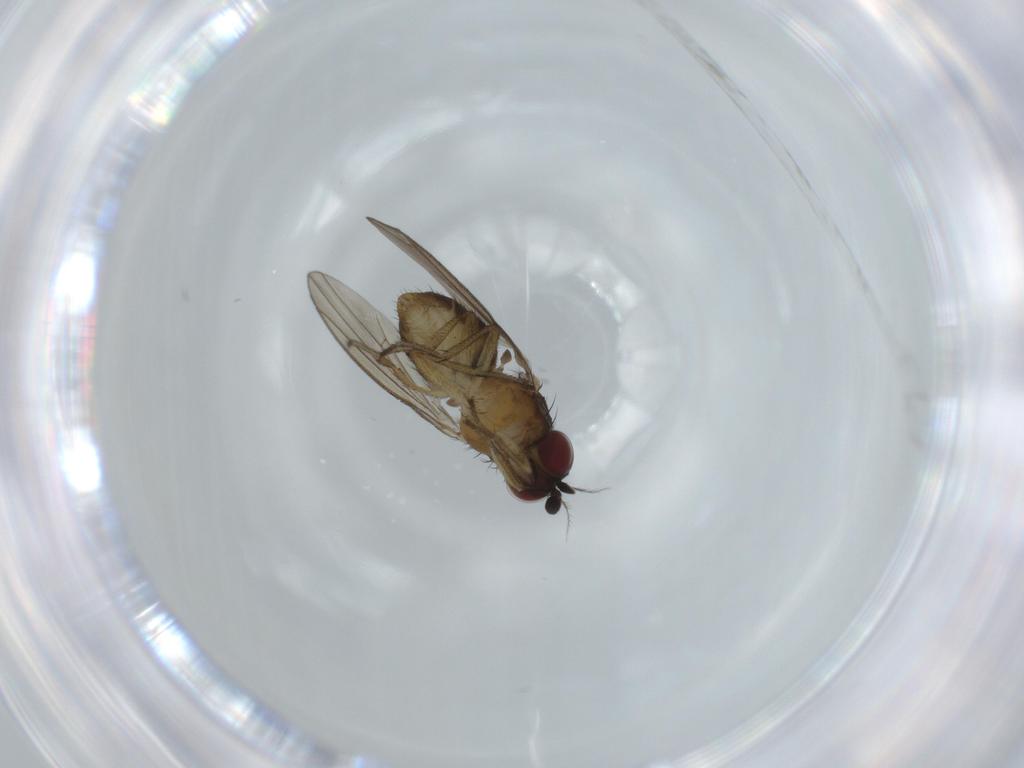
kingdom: Animalia
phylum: Arthropoda
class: Insecta
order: Diptera
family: Lauxaniidae
